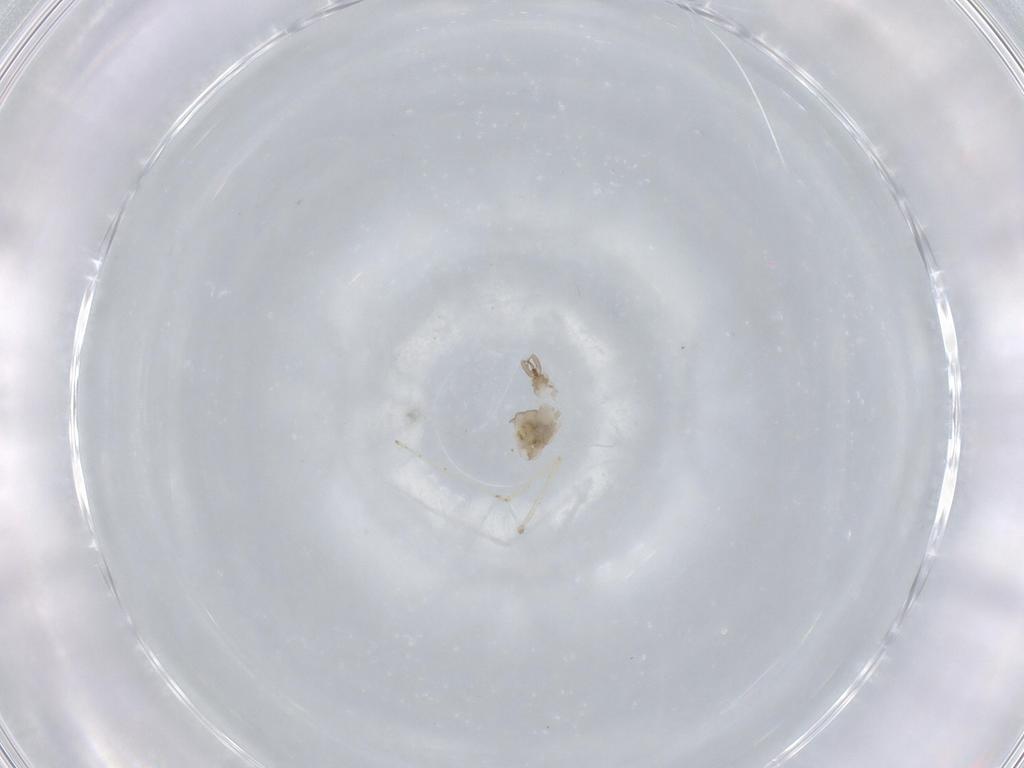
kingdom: Animalia
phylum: Arthropoda
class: Insecta
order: Diptera
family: Cecidomyiidae
